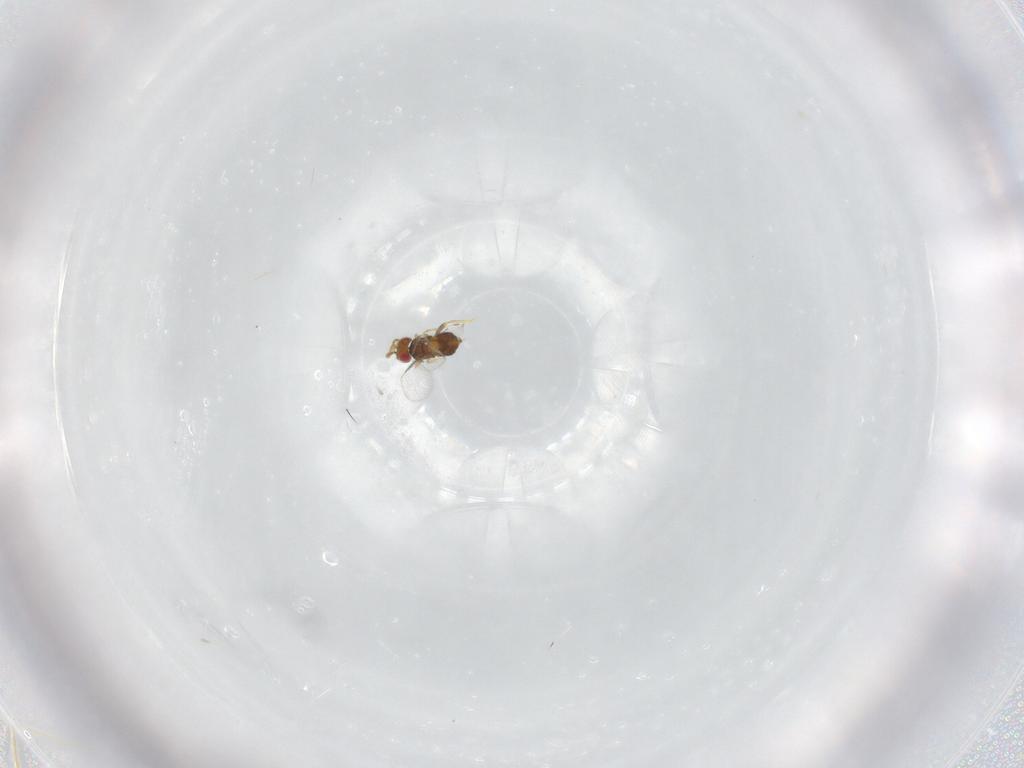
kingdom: Animalia
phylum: Arthropoda
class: Insecta
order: Hymenoptera
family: Trichogrammatidae
